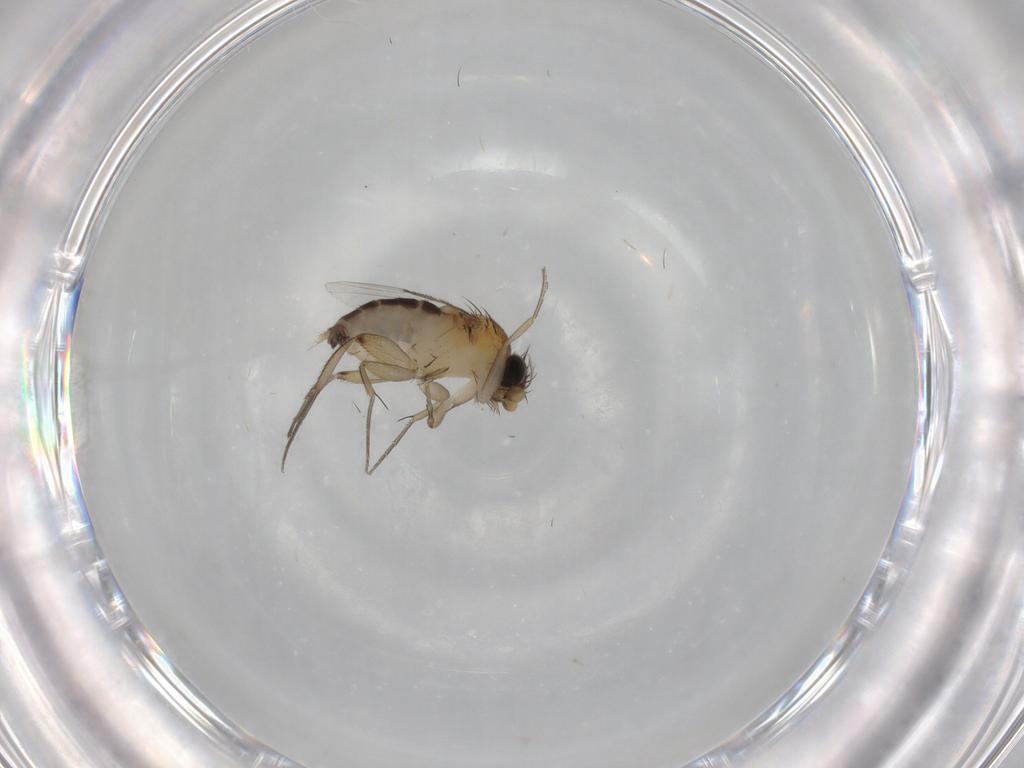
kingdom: Animalia
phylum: Arthropoda
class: Insecta
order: Diptera
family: Phoridae
